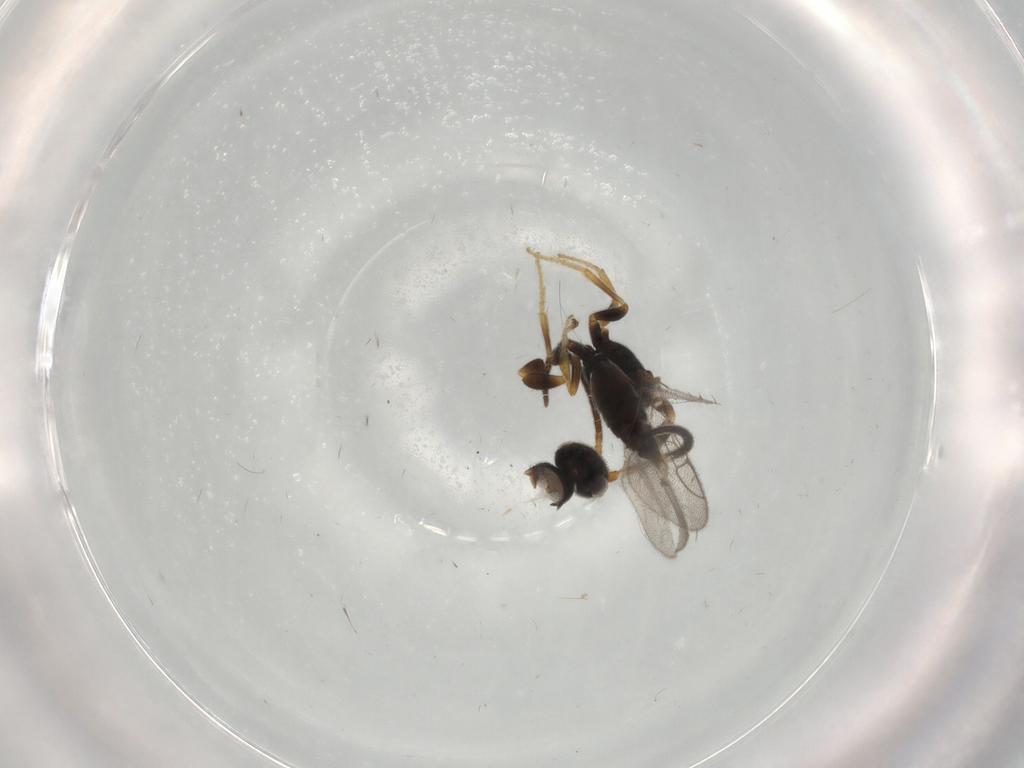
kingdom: Animalia
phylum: Arthropoda
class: Insecta
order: Hymenoptera
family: Sclerogibbidae
